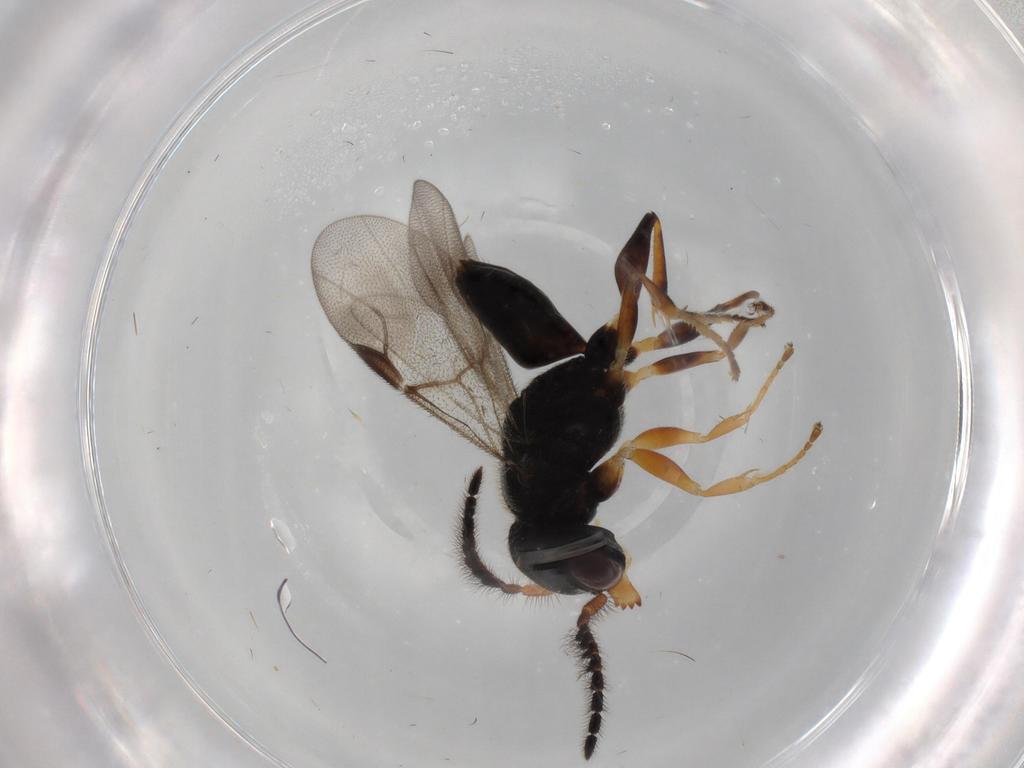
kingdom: Animalia
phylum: Arthropoda
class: Insecta
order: Hymenoptera
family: Dryinidae
